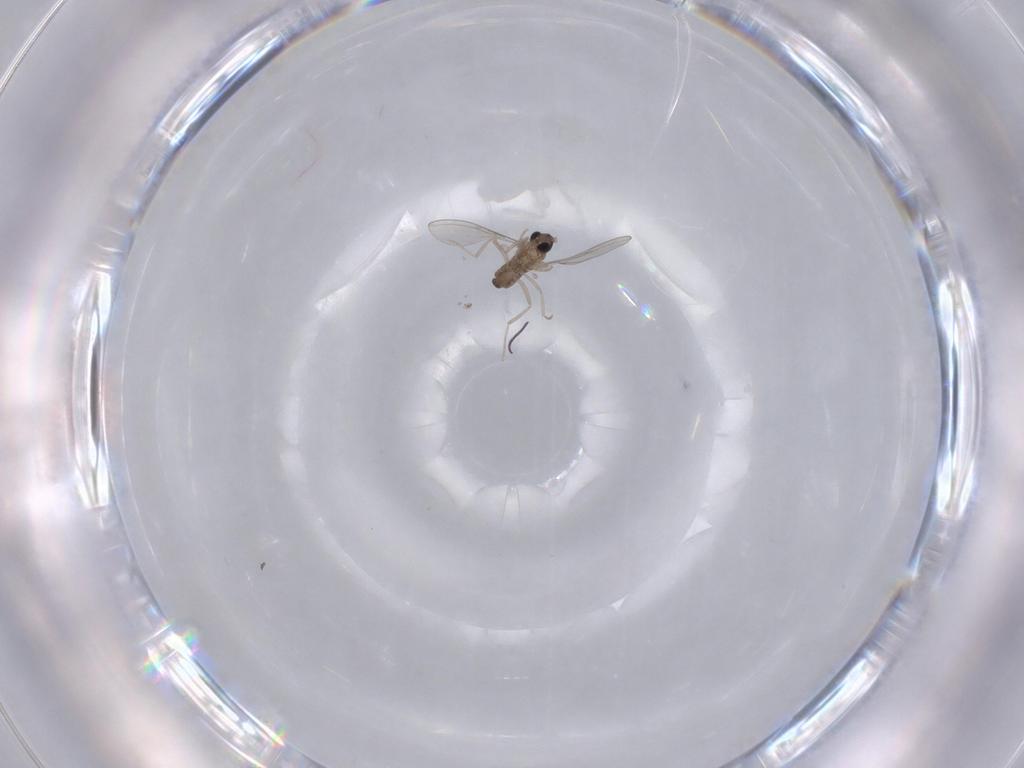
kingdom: Animalia
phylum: Arthropoda
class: Insecta
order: Diptera
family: Cecidomyiidae
